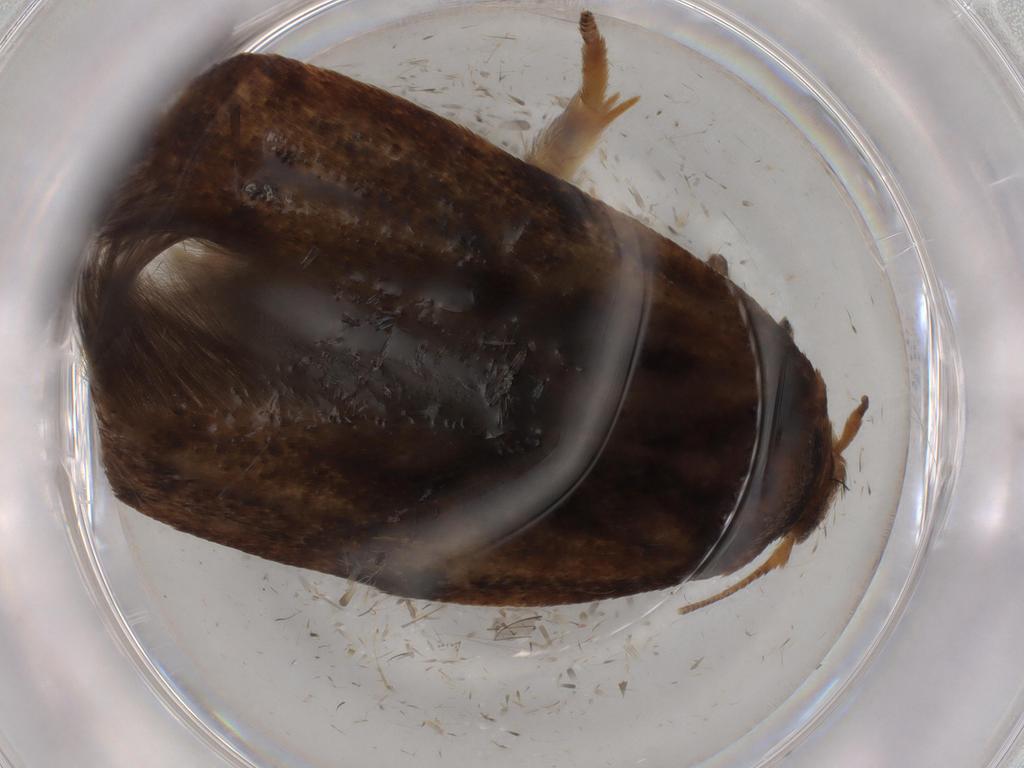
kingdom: Animalia
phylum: Arthropoda
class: Insecta
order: Lepidoptera
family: Coleophoridae
